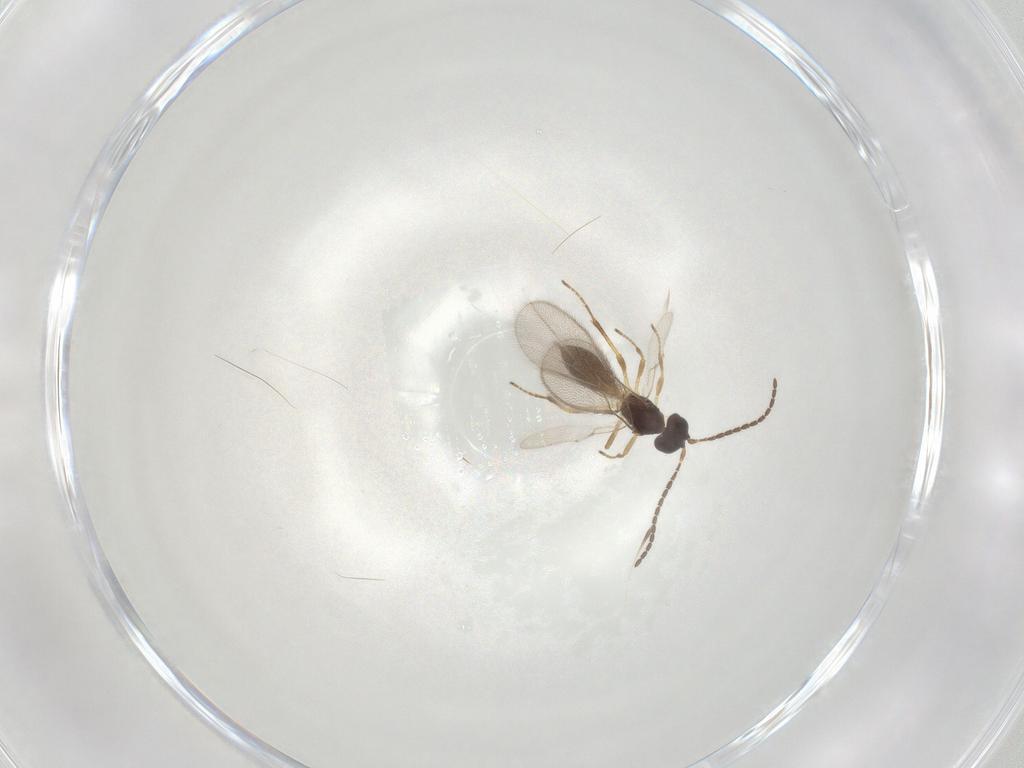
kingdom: Animalia
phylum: Arthropoda
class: Insecta
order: Hymenoptera
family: Braconidae
